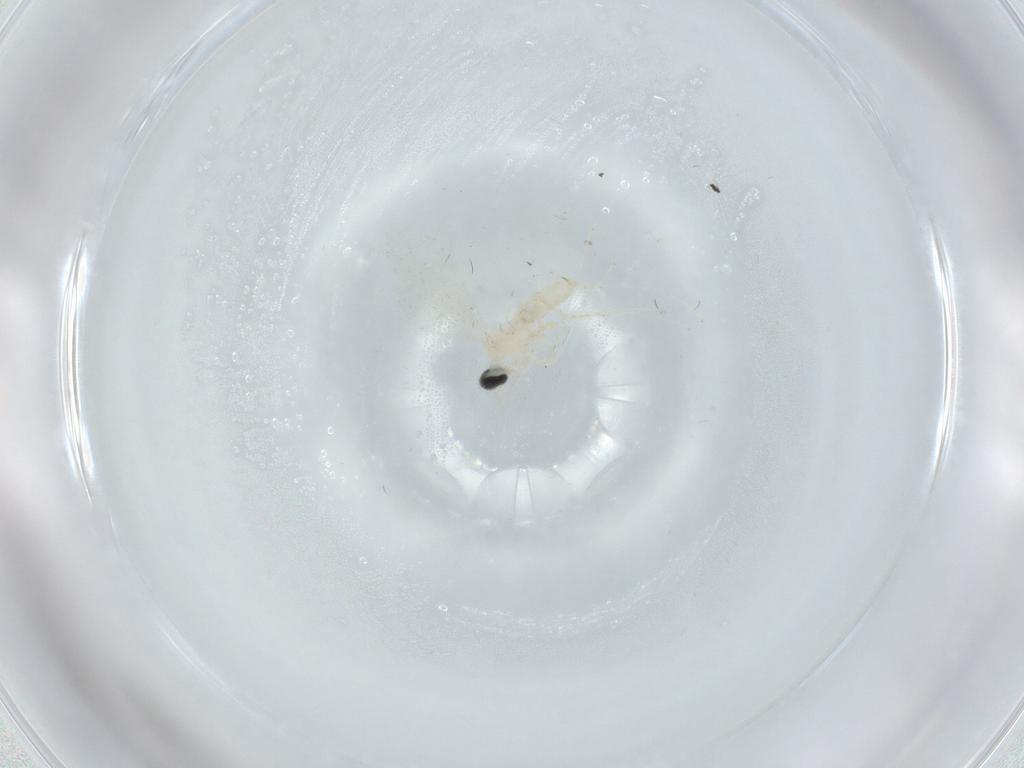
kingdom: Animalia
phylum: Arthropoda
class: Insecta
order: Diptera
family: Cecidomyiidae
